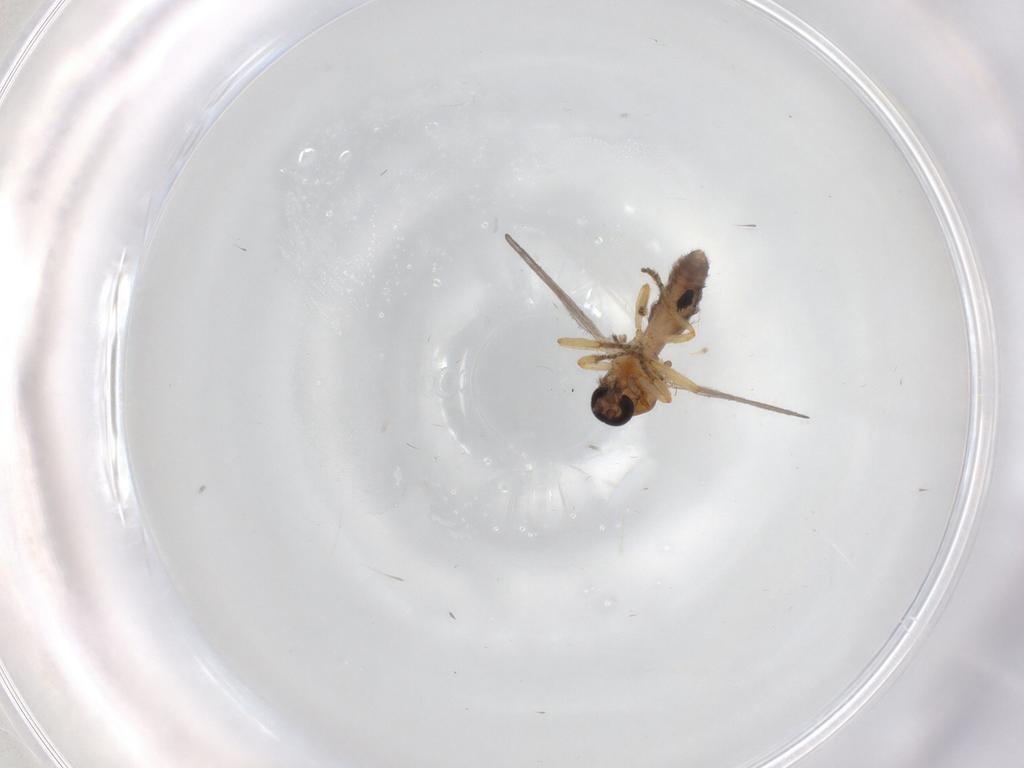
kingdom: Animalia
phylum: Arthropoda
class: Insecta
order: Diptera
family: Ceratopogonidae
